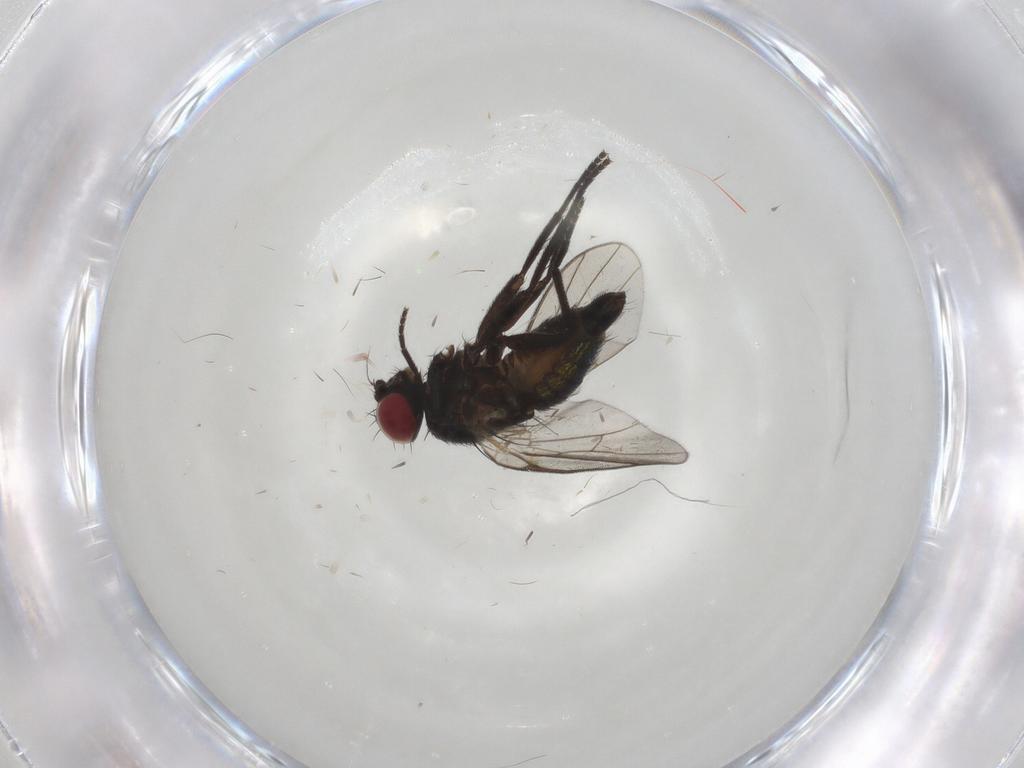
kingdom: Animalia
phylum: Arthropoda
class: Insecta
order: Diptera
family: Agromyzidae
